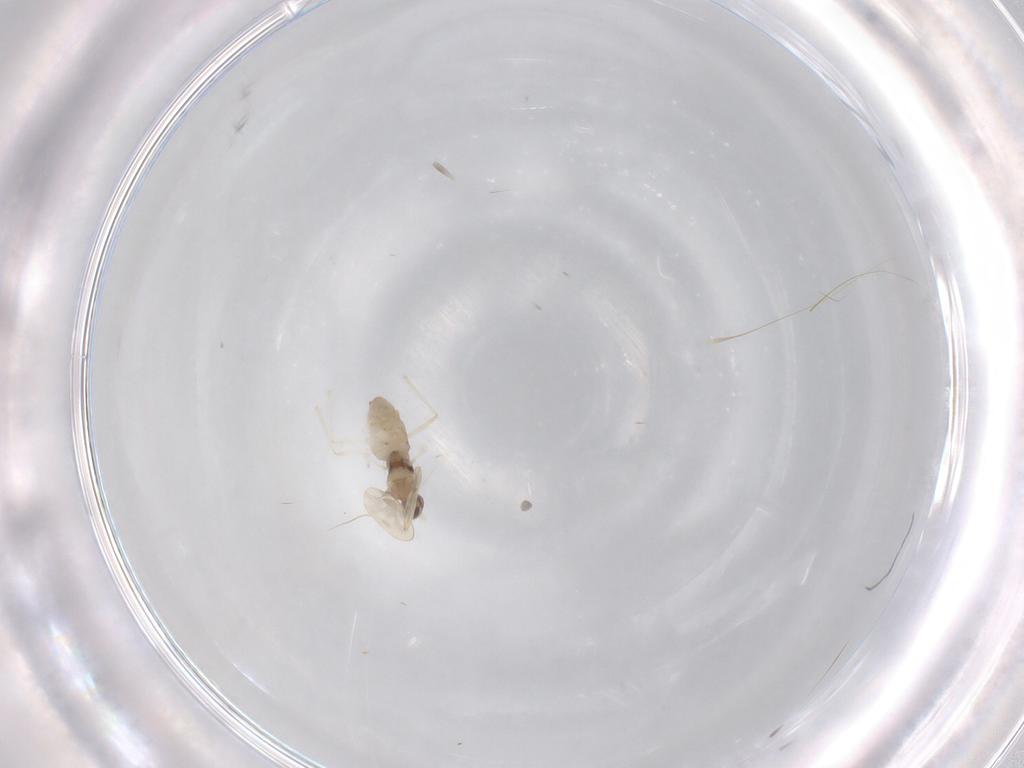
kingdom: Animalia
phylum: Arthropoda
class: Insecta
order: Diptera
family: Cecidomyiidae
